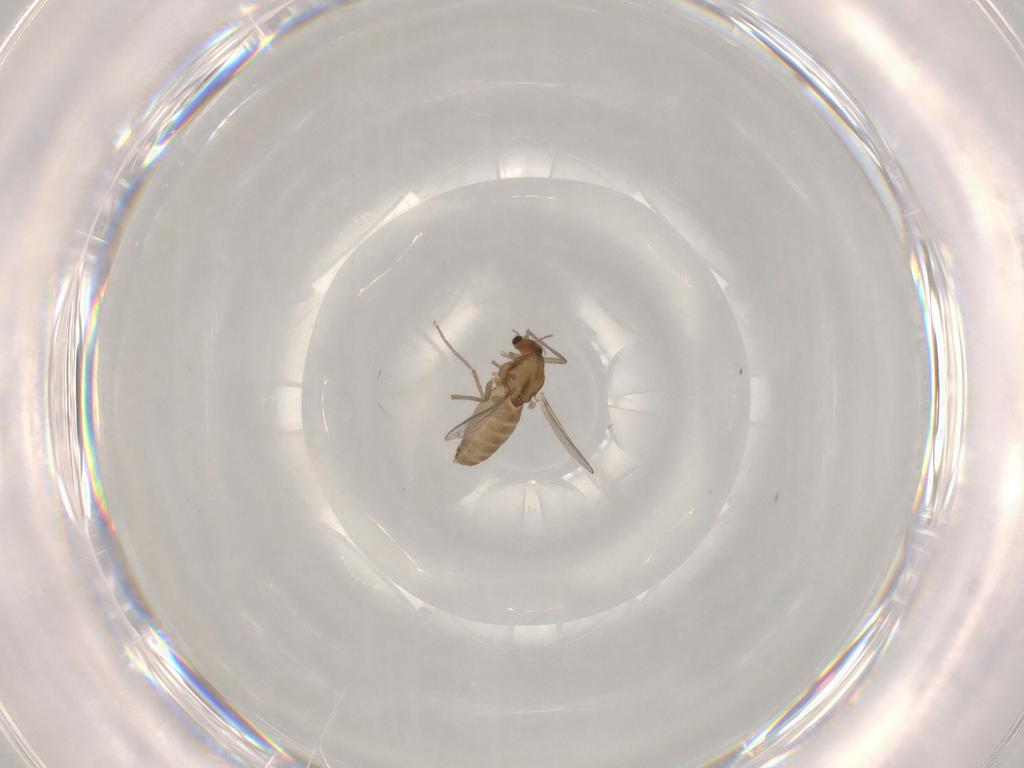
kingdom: Animalia
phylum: Arthropoda
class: Insecta
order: Diptera
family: Chironomidae
